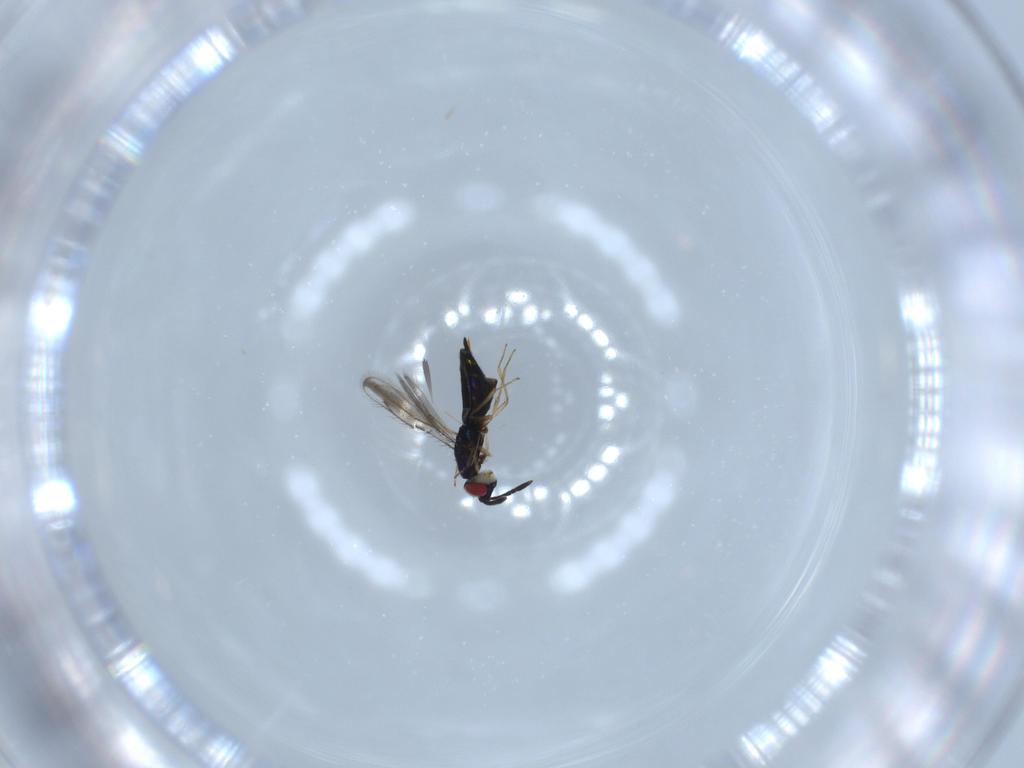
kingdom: Animalia
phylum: Arthropoda
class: Insecta
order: Hymenoptera
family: Pteromalidae
